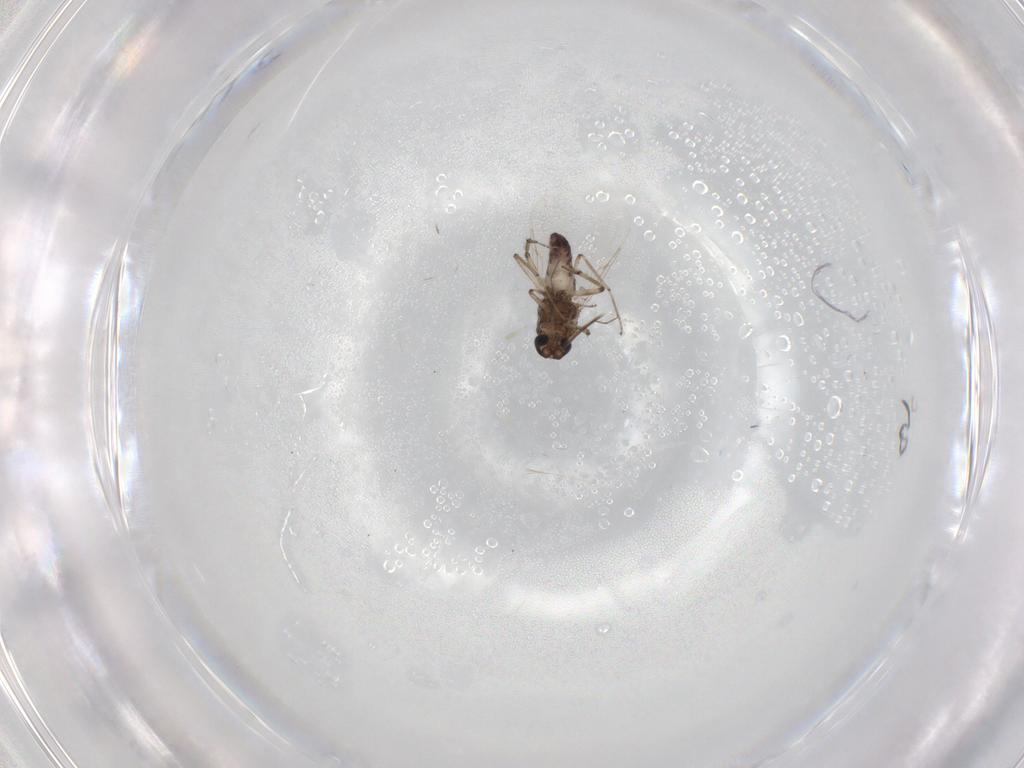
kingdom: Animalia
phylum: Arthropoda
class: Insecta
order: Diptera
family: Ceratopogonidae
